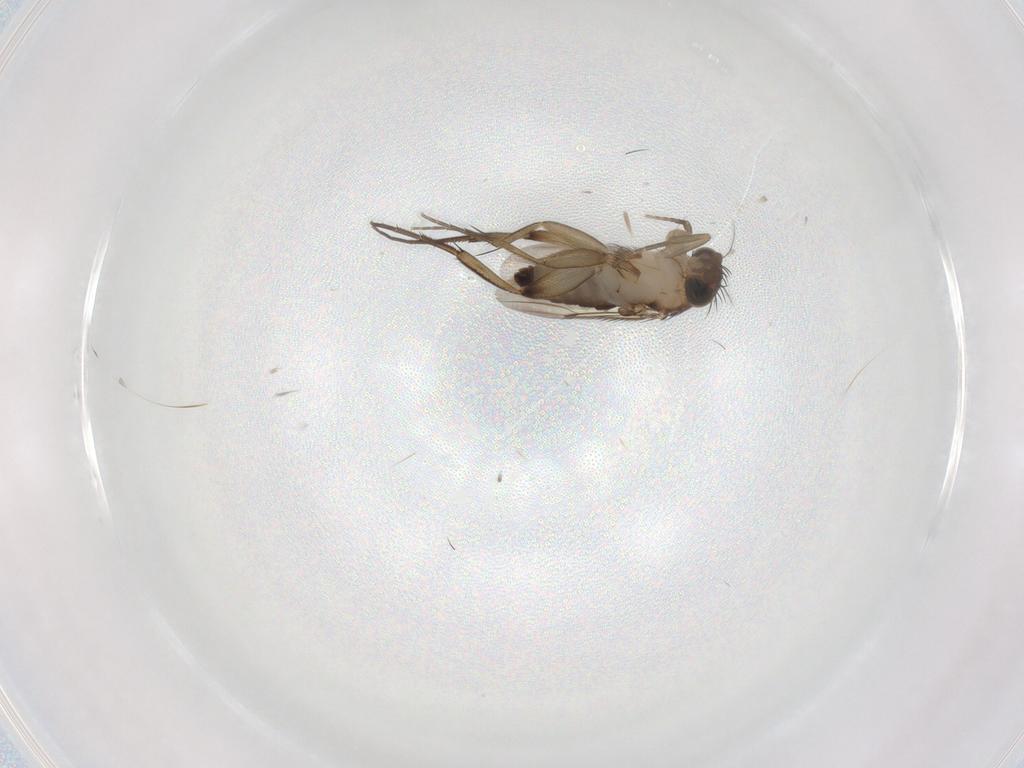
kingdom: Animalia
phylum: Arthropoda
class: Insecta
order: Diptera
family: Phoridae
